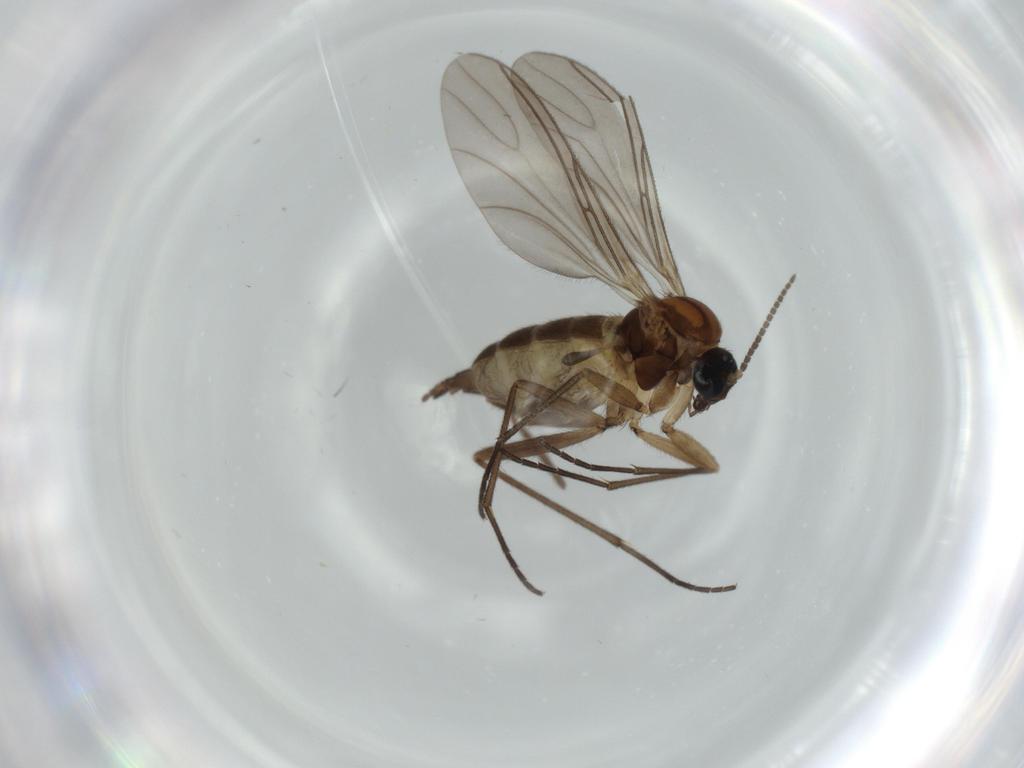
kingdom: Animalia
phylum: Arthropoda
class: Insecta
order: Diptera
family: Sciaridae
